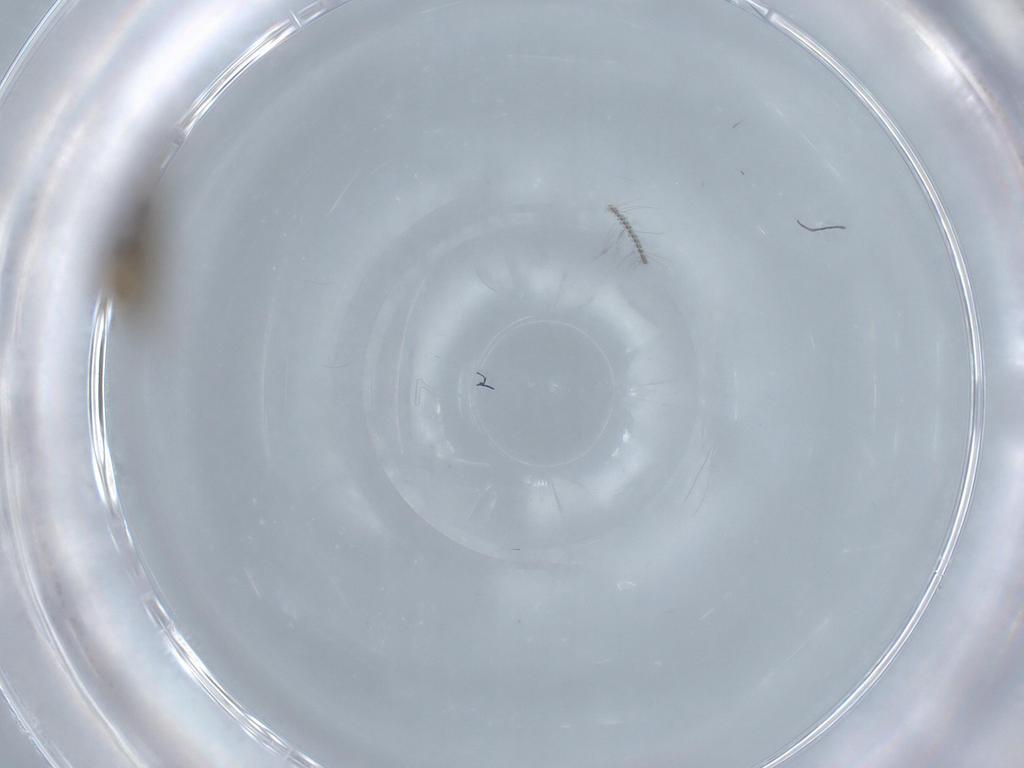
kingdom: Animalia
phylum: Arthropoda
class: Insecta
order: Diptera
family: Chironomidae
